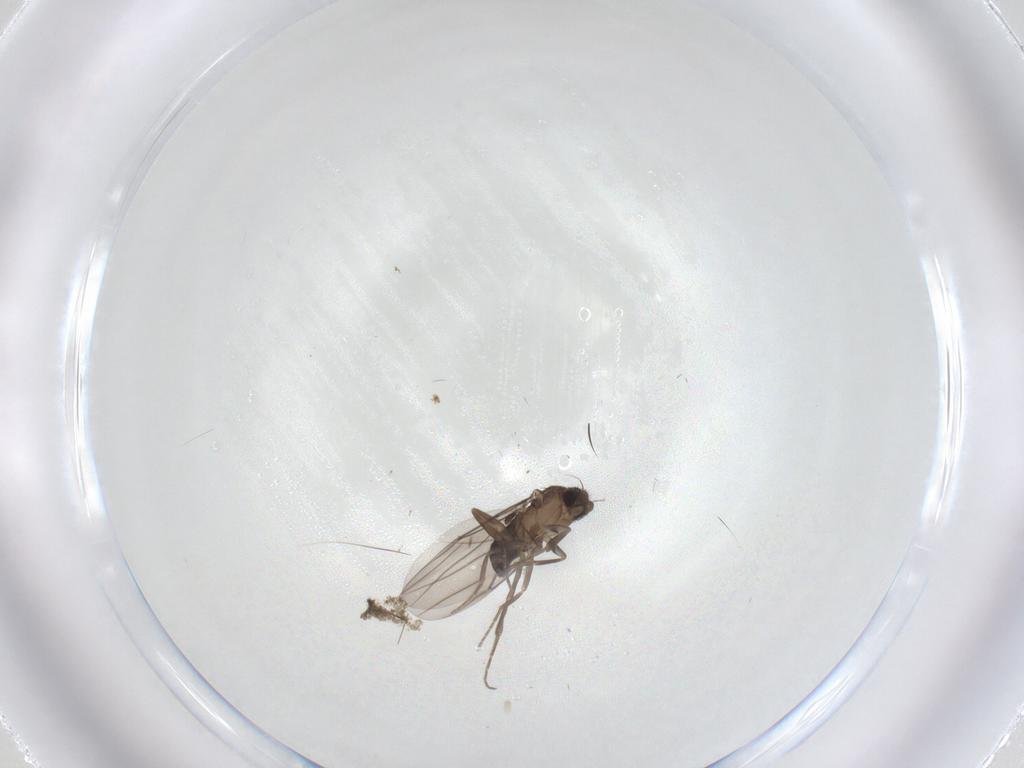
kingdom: Animalia
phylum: Arthropoda
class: Insecta
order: Diptera
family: Phoridae
